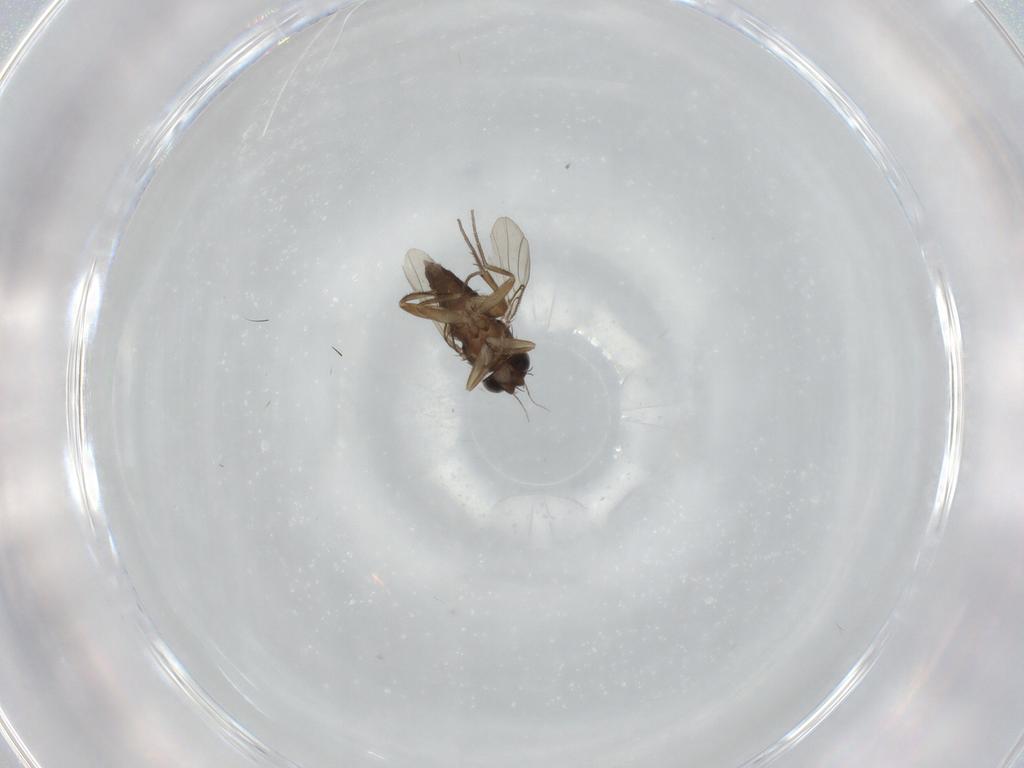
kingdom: Animalia
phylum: Arthropoda
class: Insecta
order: Diptera
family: Phoridae
